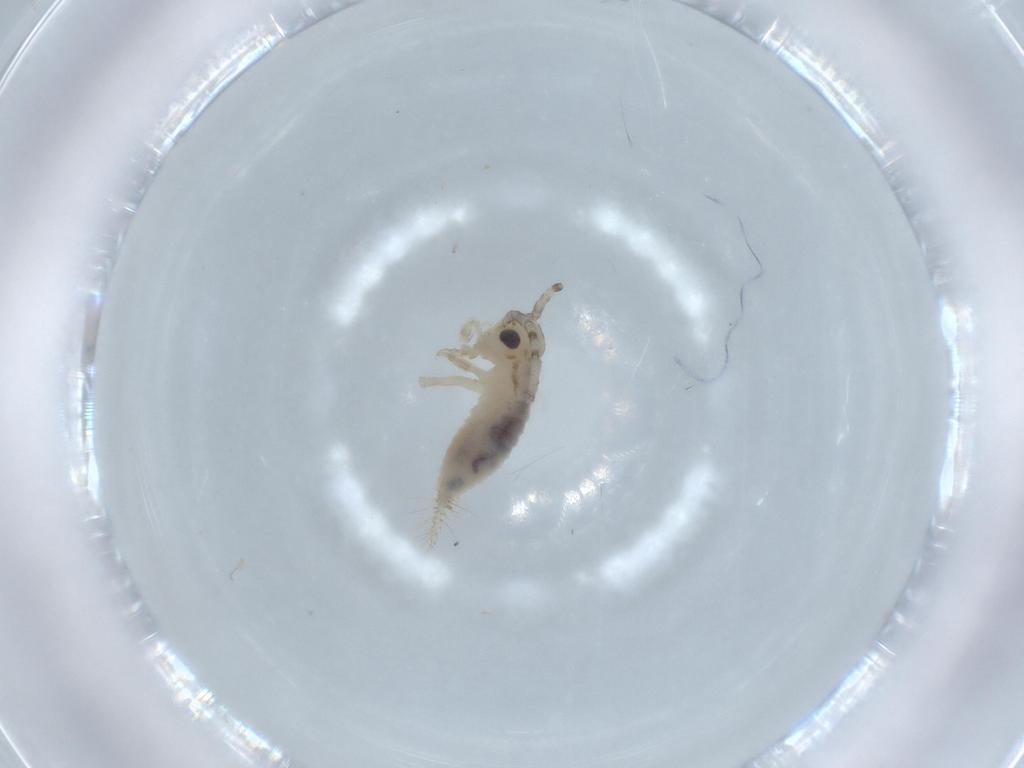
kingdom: Animalia
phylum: Arthropoda
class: Insecta
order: Orthoptera
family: Trigonidiidae
